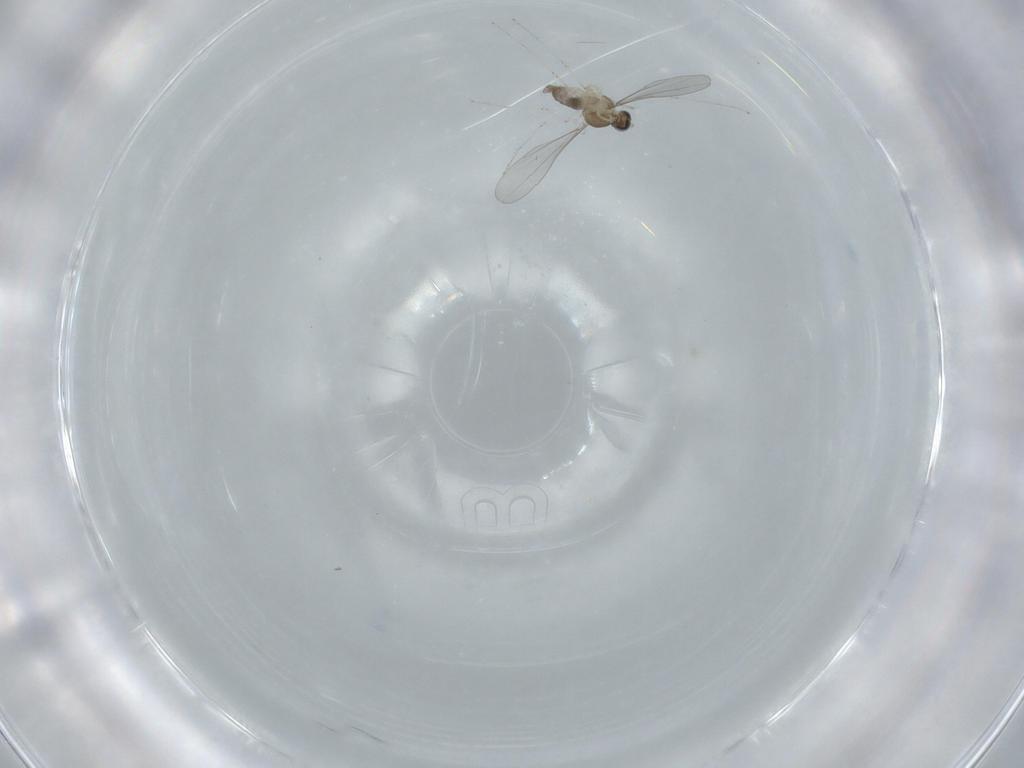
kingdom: Animalia
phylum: Arthropoda
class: Insecta
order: Diptera
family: Cecidomyiidae
